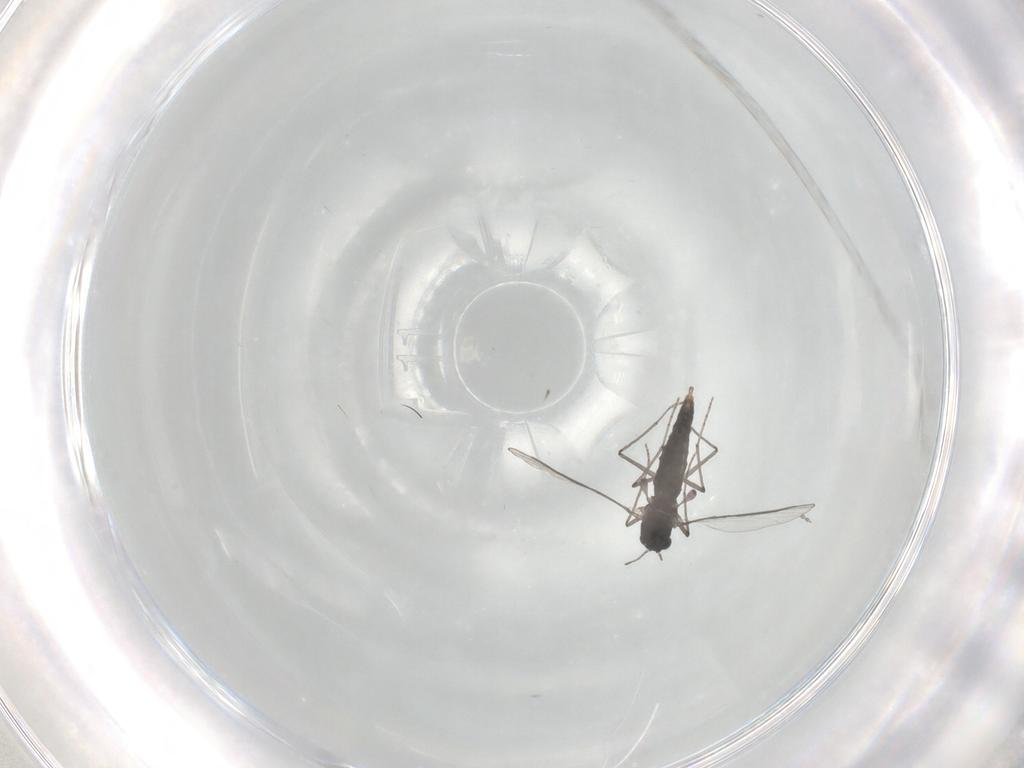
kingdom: Animalia
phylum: Arthropoda
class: Insecta
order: Diptera
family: Chironomidae
